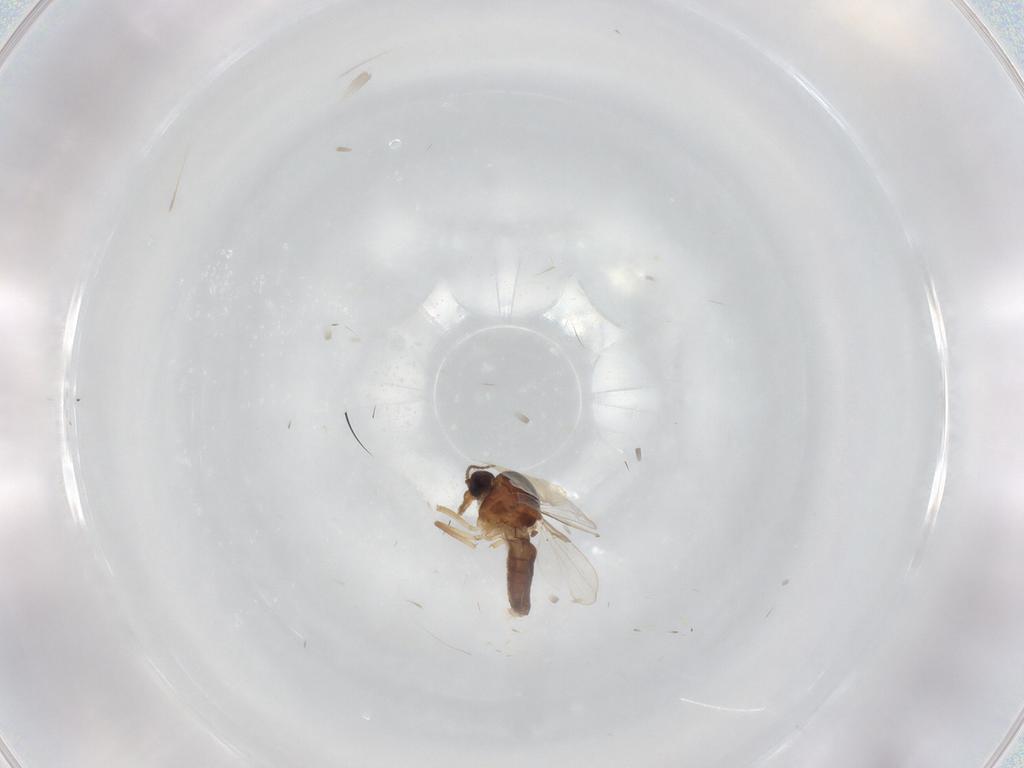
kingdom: Animalia
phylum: Arthropoda
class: Insecta
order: Diptera
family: Ceratopogonidae
